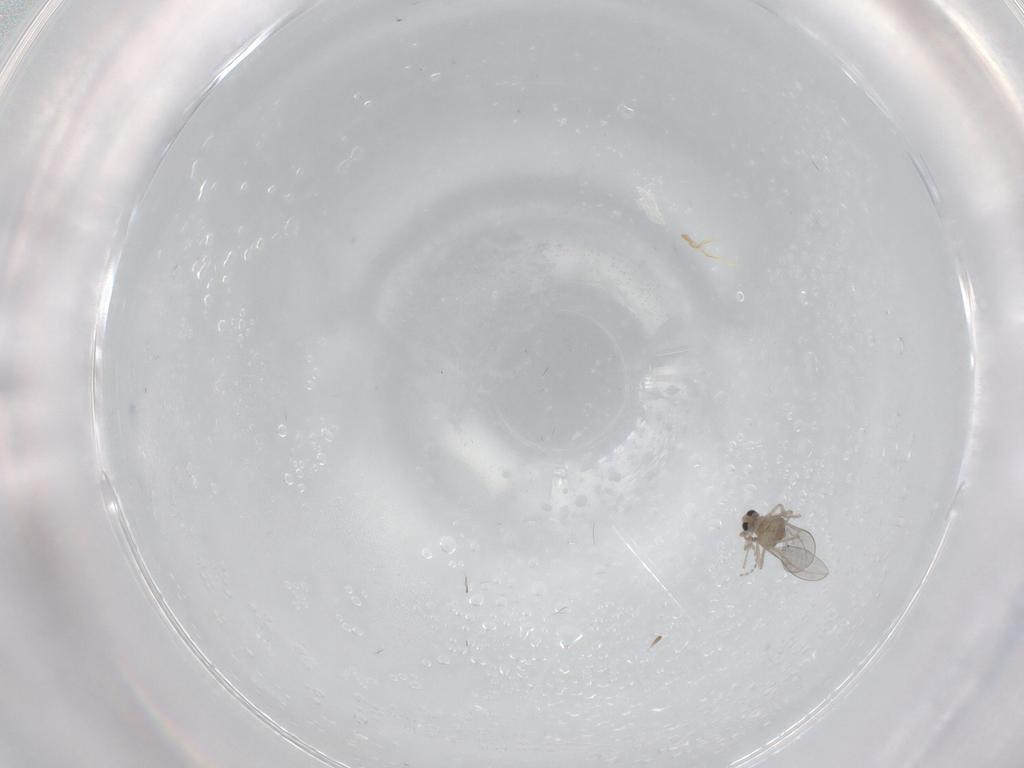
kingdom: Animalia
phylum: Arthropoda
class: Insecta
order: Diptera
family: Cecidomyiidae
